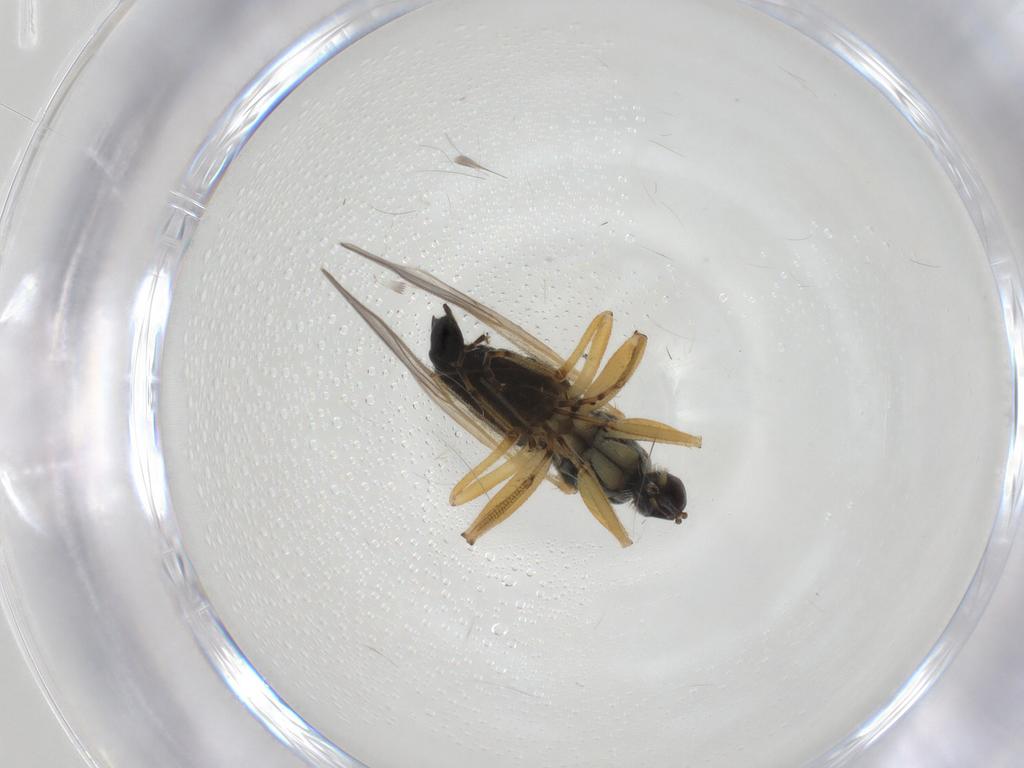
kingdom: Animalia
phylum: Arthropoda
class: Insecta
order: Diptera
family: Hybotidae
